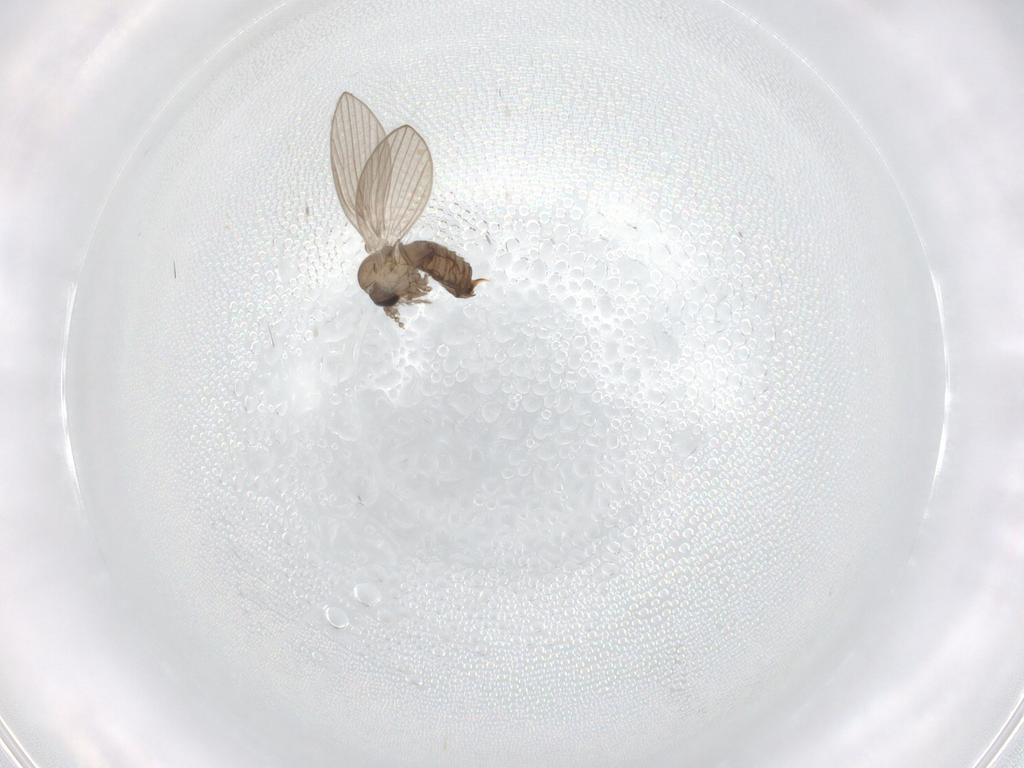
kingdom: Animalia
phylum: Arthropoda
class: Insecta
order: Diptera
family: Psychodidae
